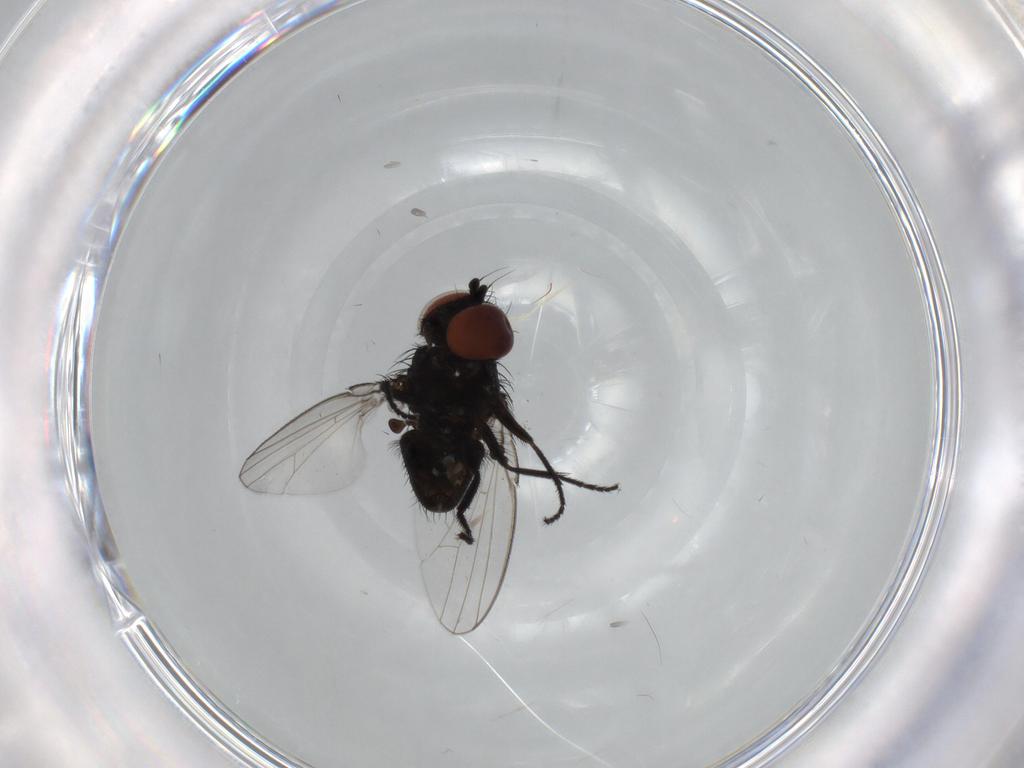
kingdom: Animalia
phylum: Arthropoda
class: Insecta
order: Diptera
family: Milichiidae
